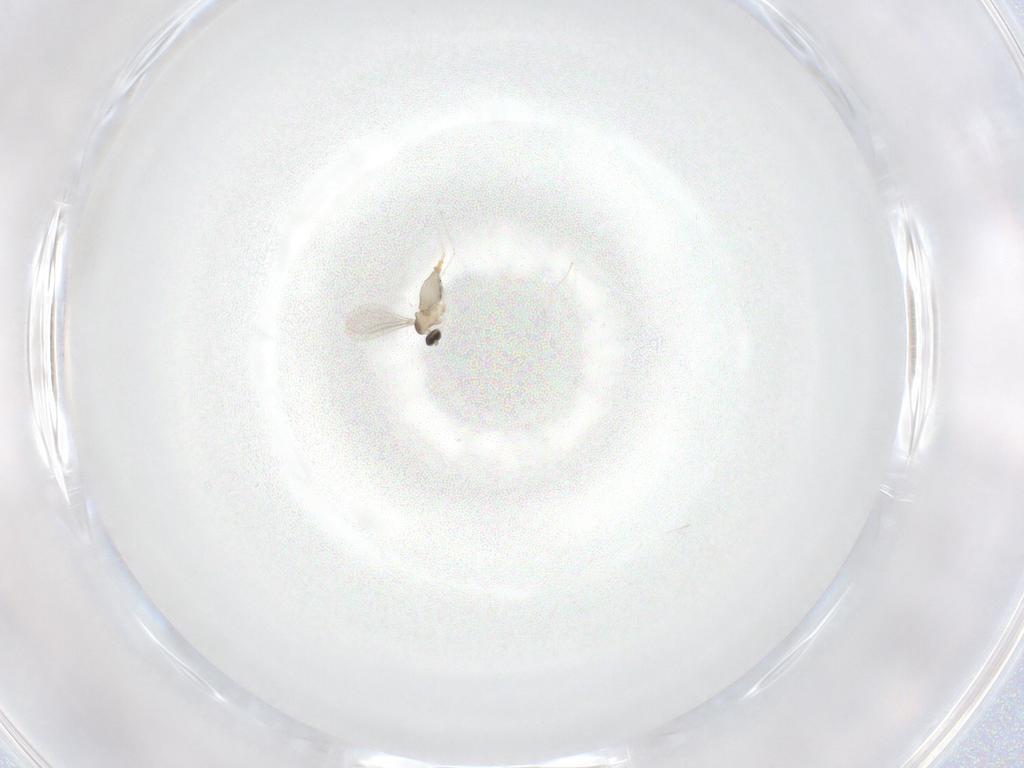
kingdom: Animalia
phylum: Arthropoda
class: Insecta
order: Diptera
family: Cecidomyiidae
